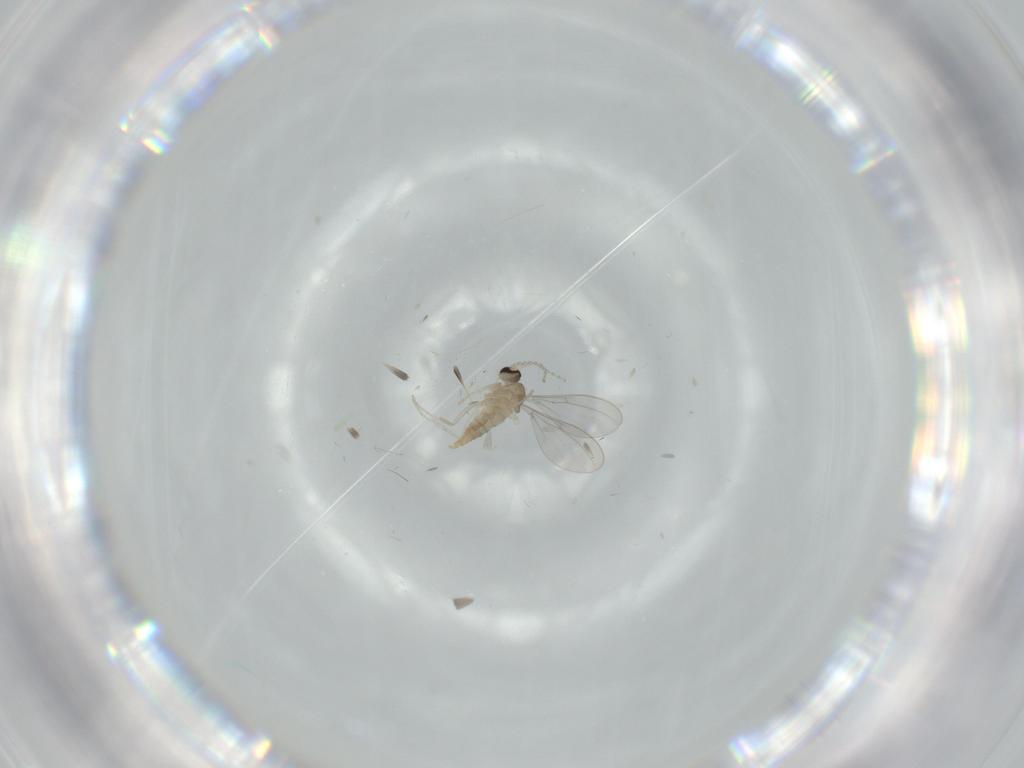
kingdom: Animalia
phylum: Arthropoda
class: Insecta
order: Diptera
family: Cecidomyiidae
